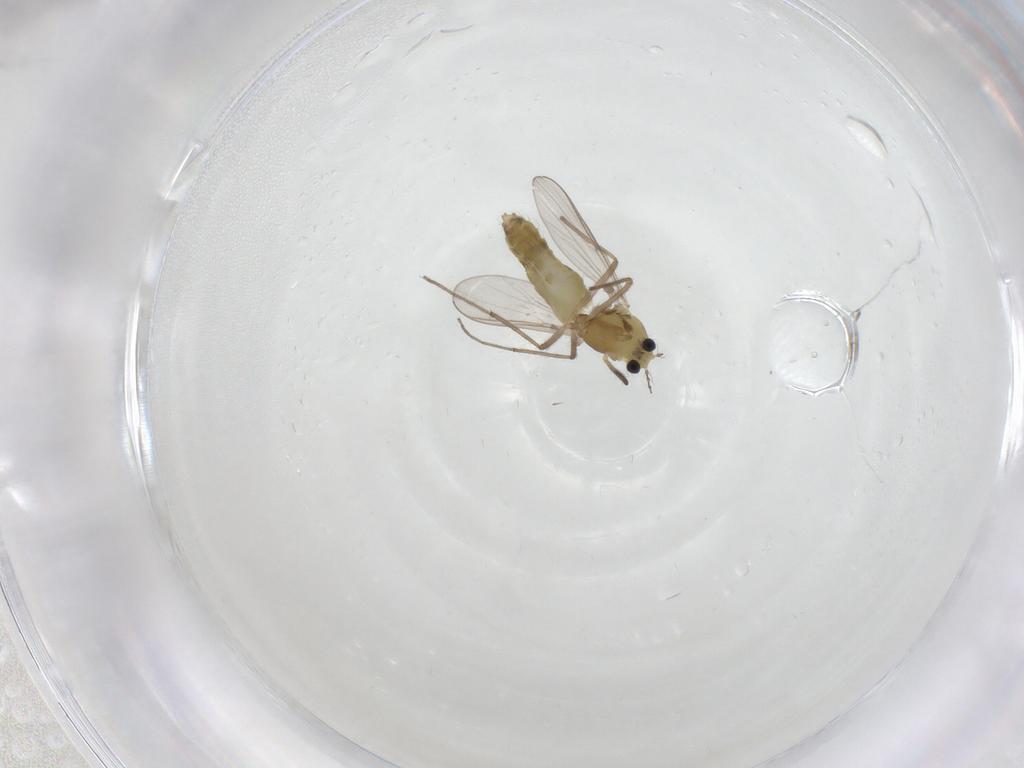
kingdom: Animalia
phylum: Arthropoda
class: Insecta
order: Diptera
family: Chironomidae
